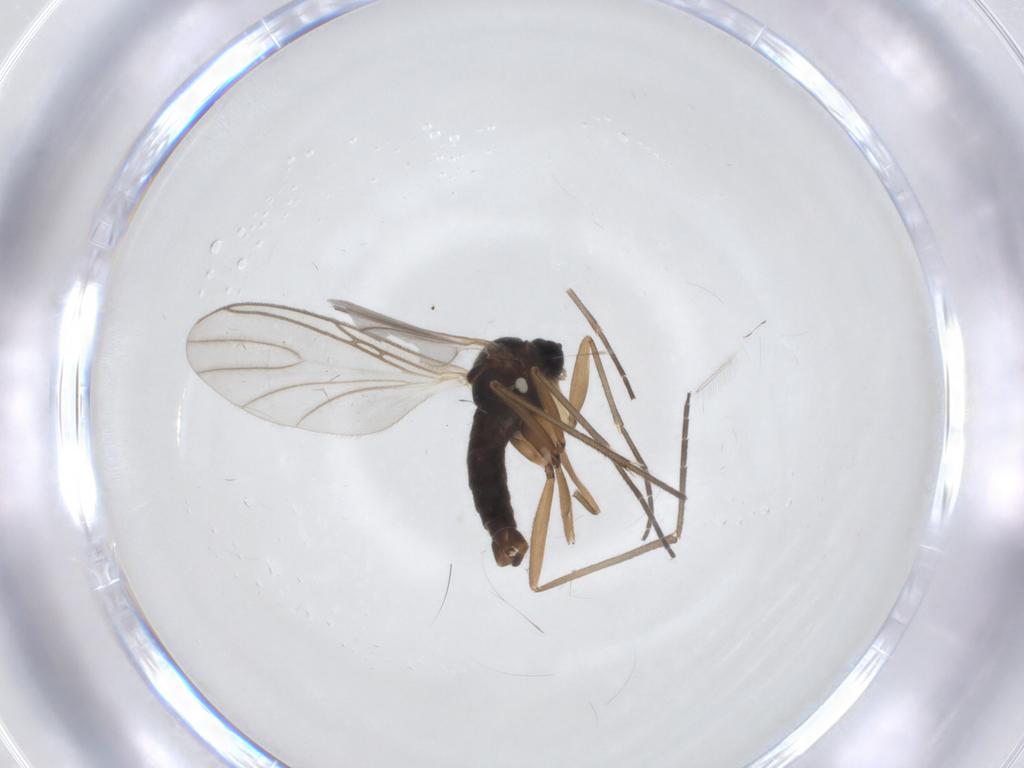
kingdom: Animalia
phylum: Arthropoda
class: Insecta
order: Diptera
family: Sciaridae
